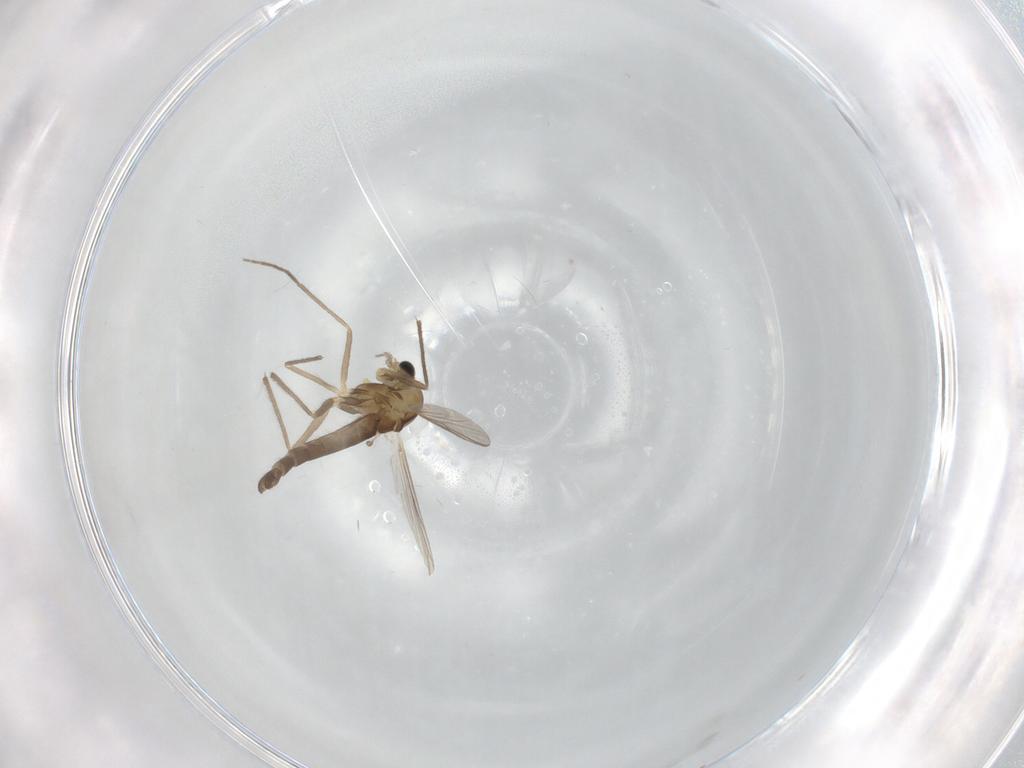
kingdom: Animalia
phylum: Arthropoda
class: Insecta
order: Diptera
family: Chironomidae
